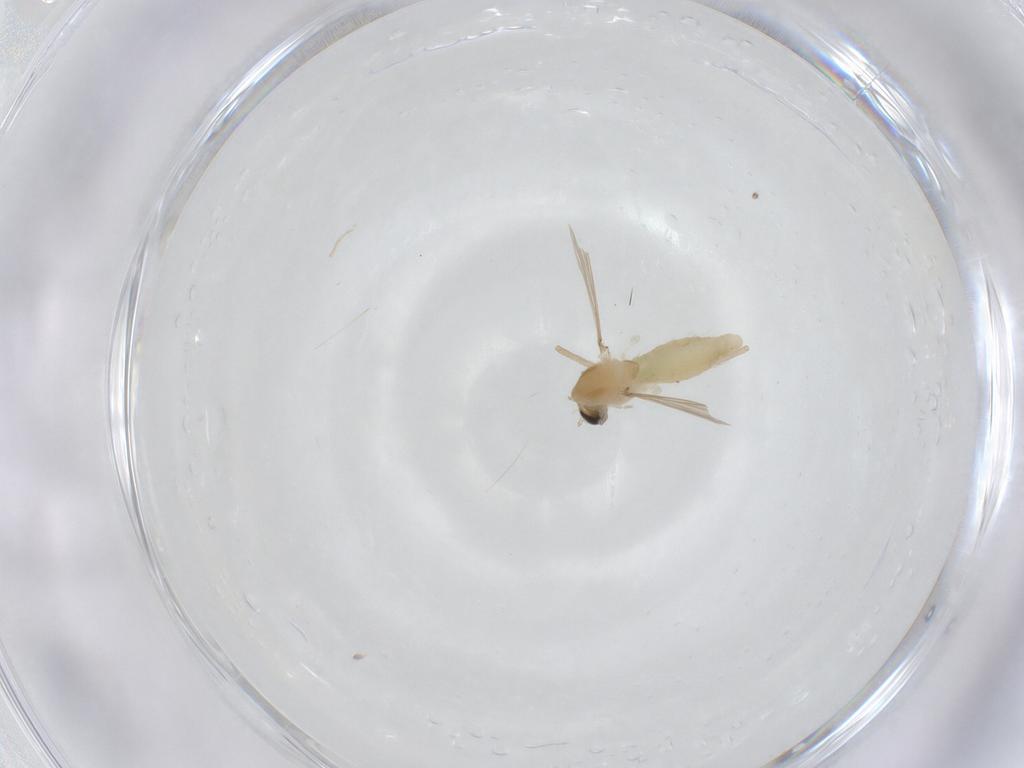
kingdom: Animalia
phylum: Arthropoda
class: Insecta
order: Diptera
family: Chironomidae
